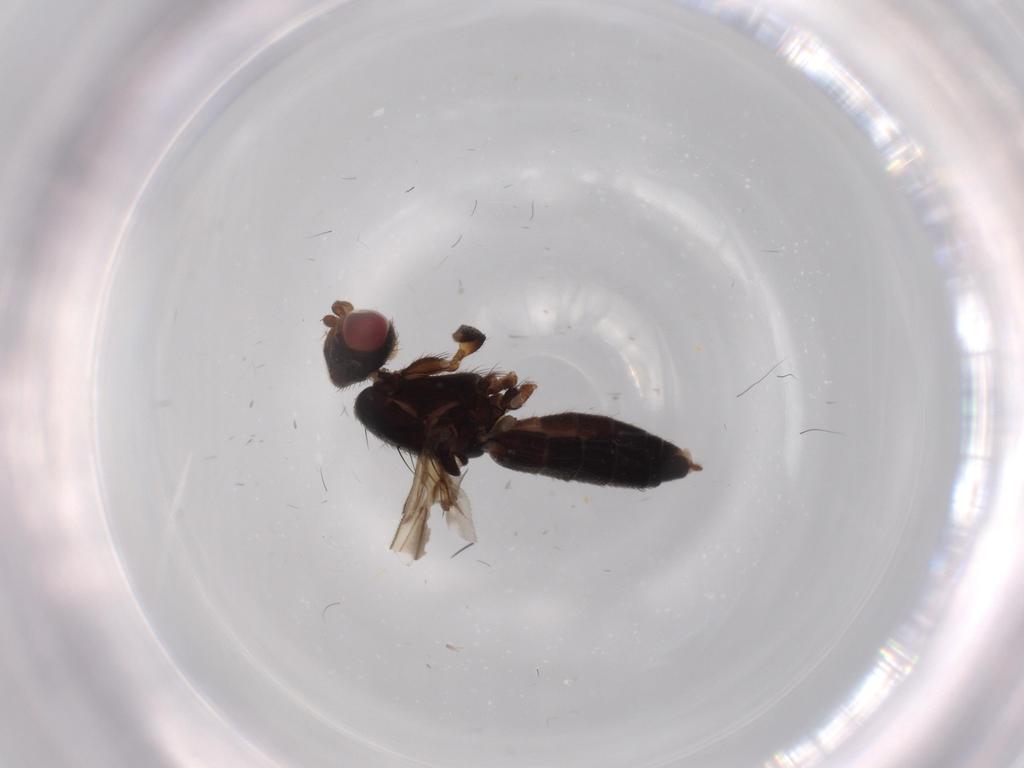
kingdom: Animalia
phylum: Arthropoda
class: Insecta
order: Diptera
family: Opomyzidae
